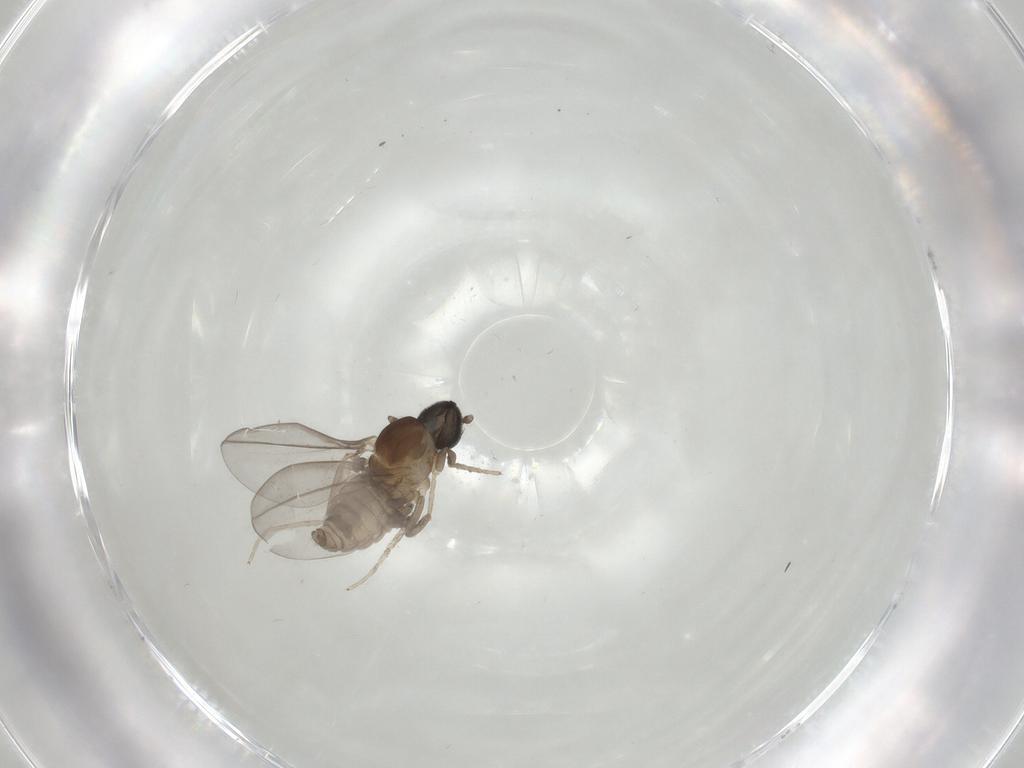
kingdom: Animalia
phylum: Arthropoda
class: Insecta
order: Diptera
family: Cecidomyiidae
